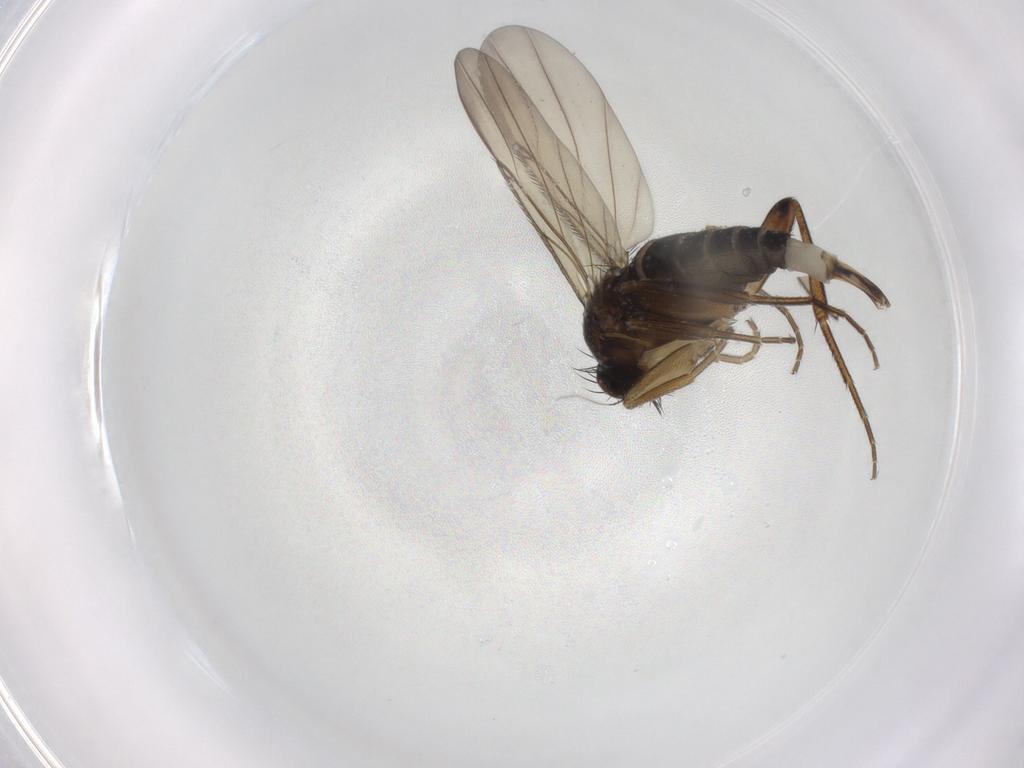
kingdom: Animalia
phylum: Arthropoda
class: Insecta
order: Diptera
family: Phoridae
